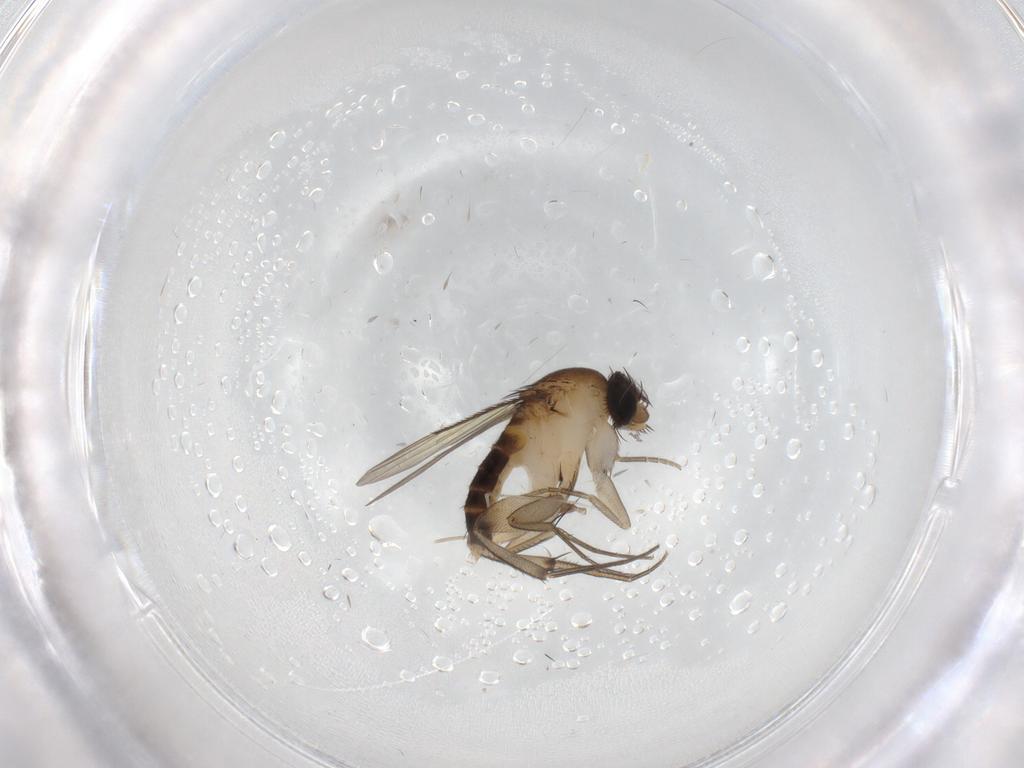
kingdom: Animalia
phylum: Arthropoda
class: Insecta
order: Diptera
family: Phoridae
